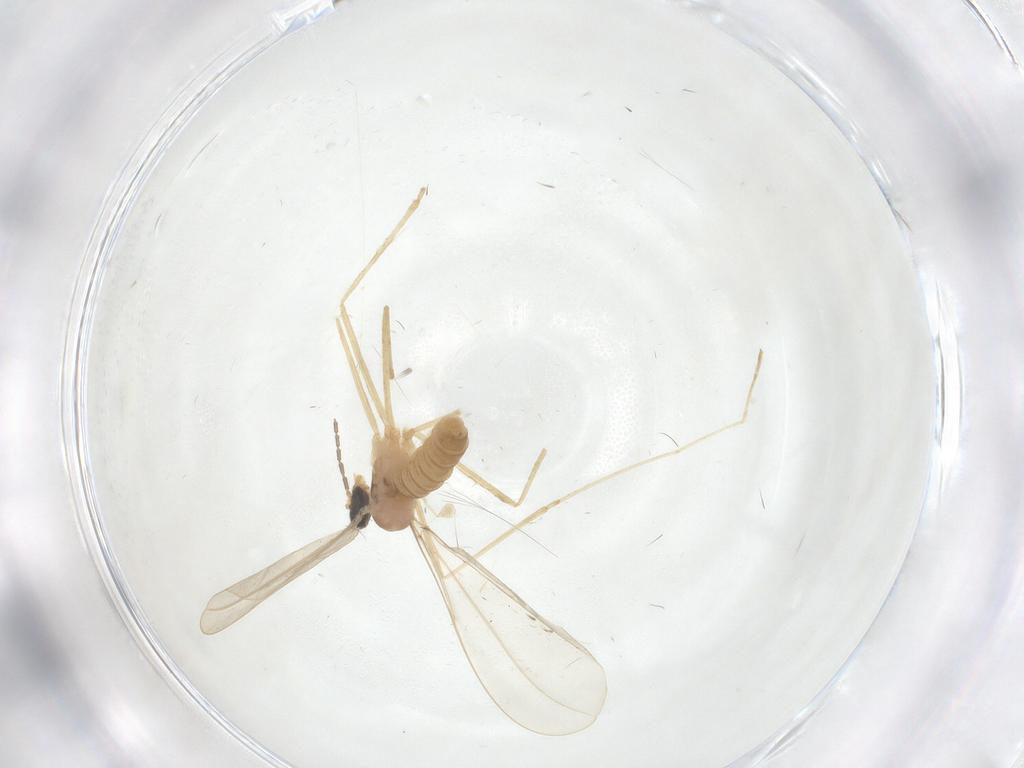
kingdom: Animalia
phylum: Arthropoda
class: Insecta
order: Diptera
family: Cecidomyiidae
